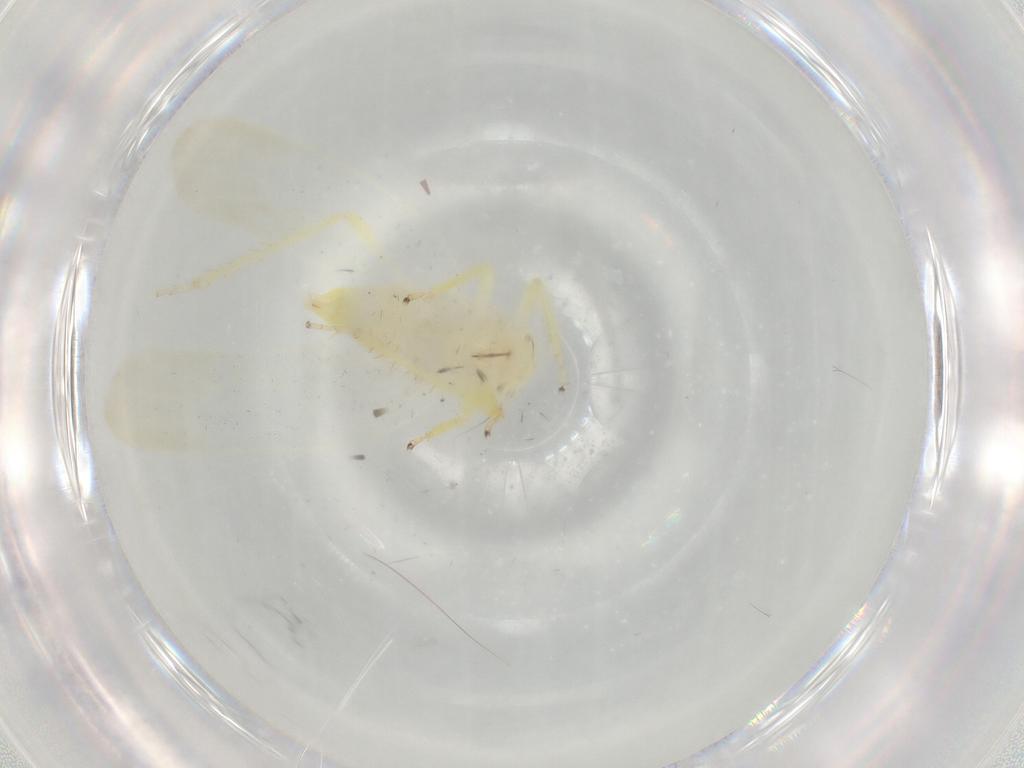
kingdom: Animalia
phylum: Arthropoda
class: Insecta
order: Hemiptera
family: Cicadellidae
